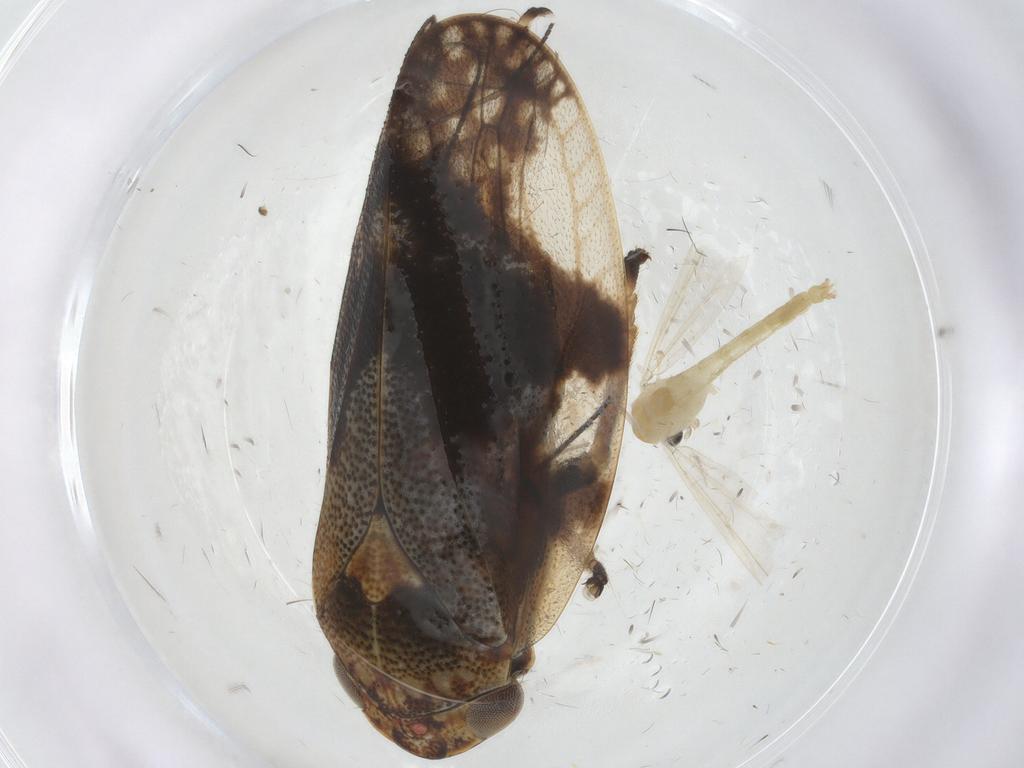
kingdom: Animalia
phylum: Arthropoda
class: Insecta
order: Hemiptera
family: Aphrophoridae
